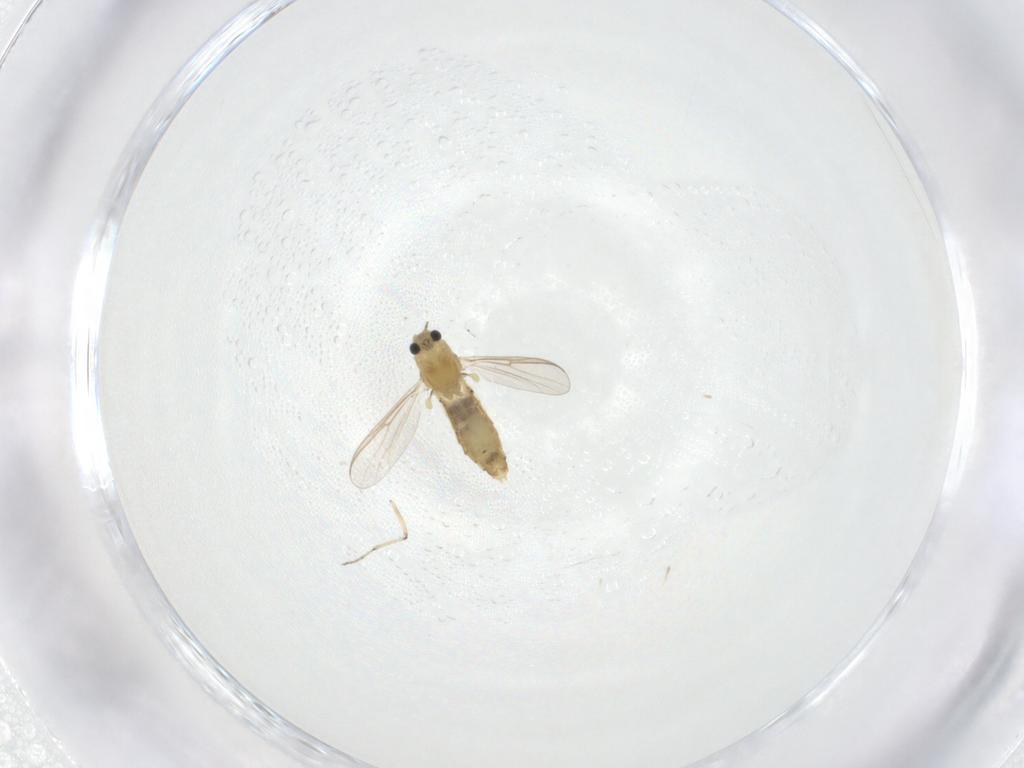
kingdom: Animalia
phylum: Arthropoda
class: Insecta
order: Diptera
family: Chironomidae
